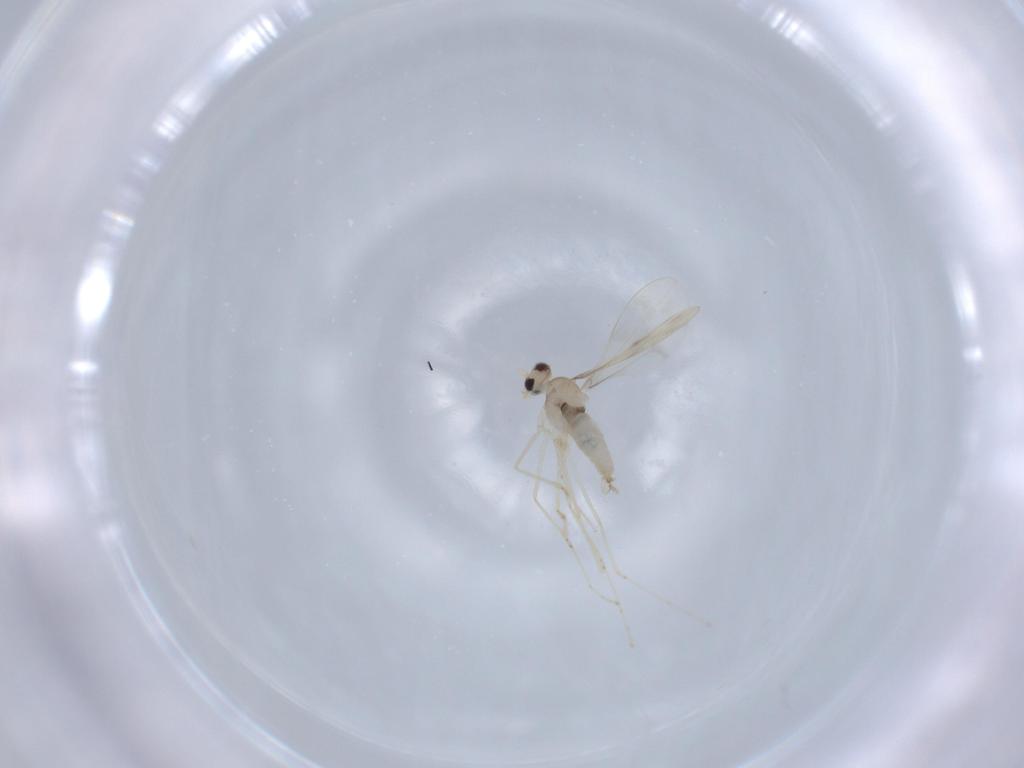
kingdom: Animalia
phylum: Arthropoda
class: Insecta
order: Diptera
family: Cecidomyiidae
